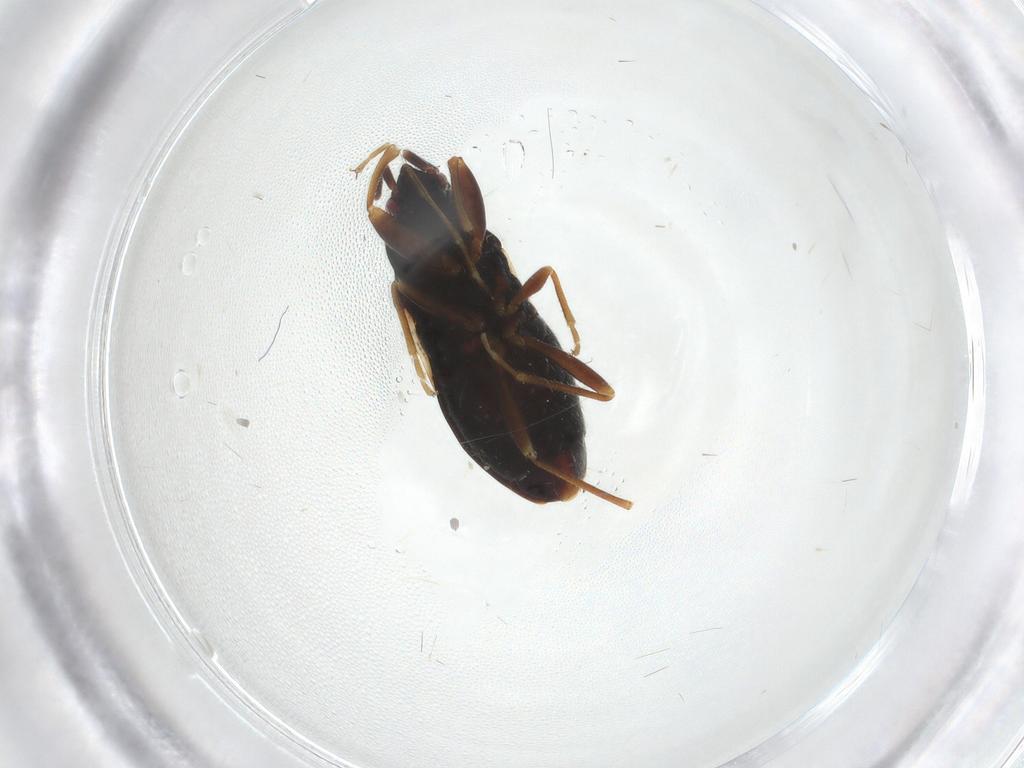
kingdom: Animalia
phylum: Arthropoda
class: Insecta
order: Hemiptera
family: Rhyparochromidae
